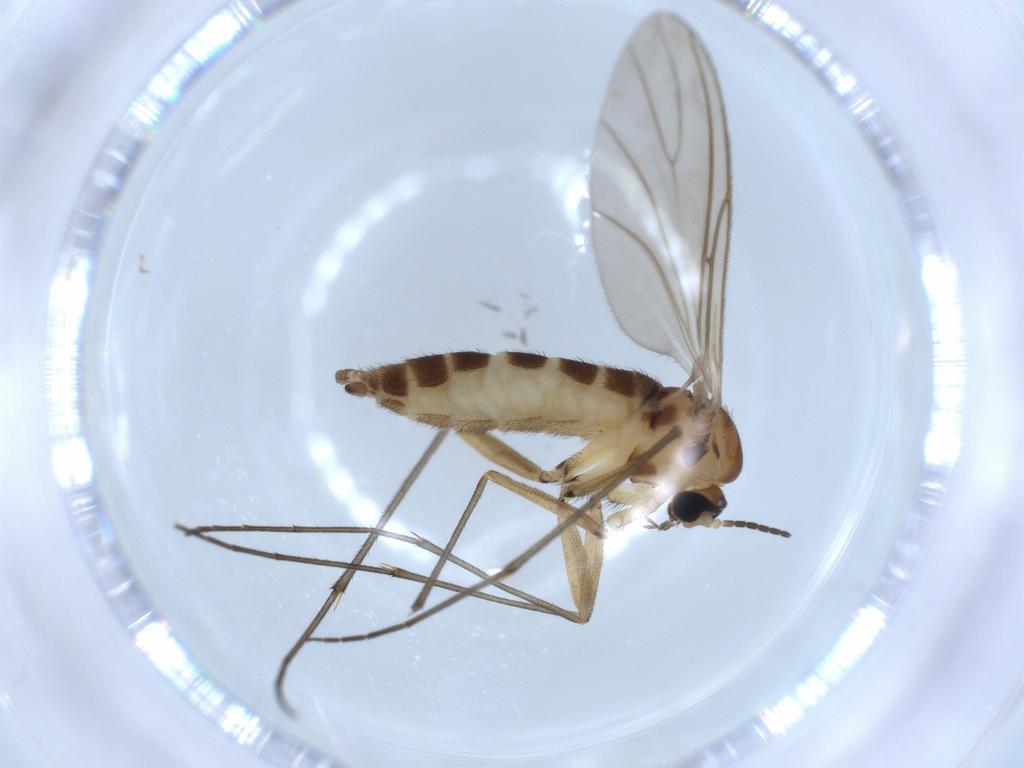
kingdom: Animalia
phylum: Arthropoda
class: Insecta
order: Diptera
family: Sciaridae
